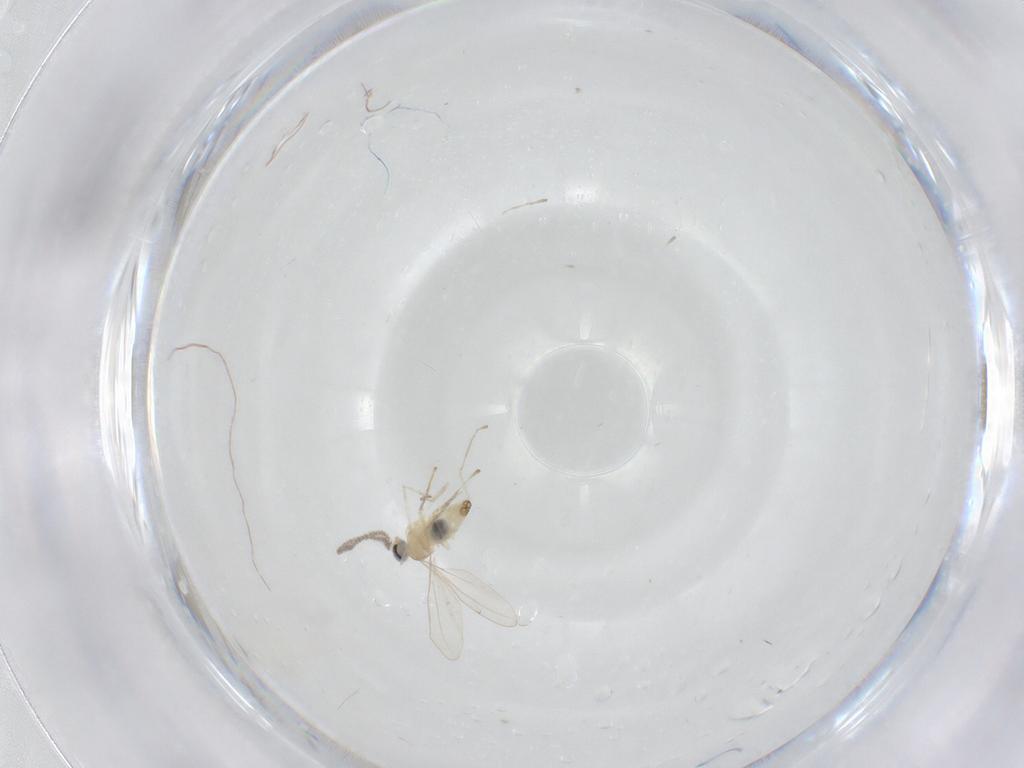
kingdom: Animalia
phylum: Arthropoda
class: Insecta
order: Diptera
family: Cecidomyiidae
